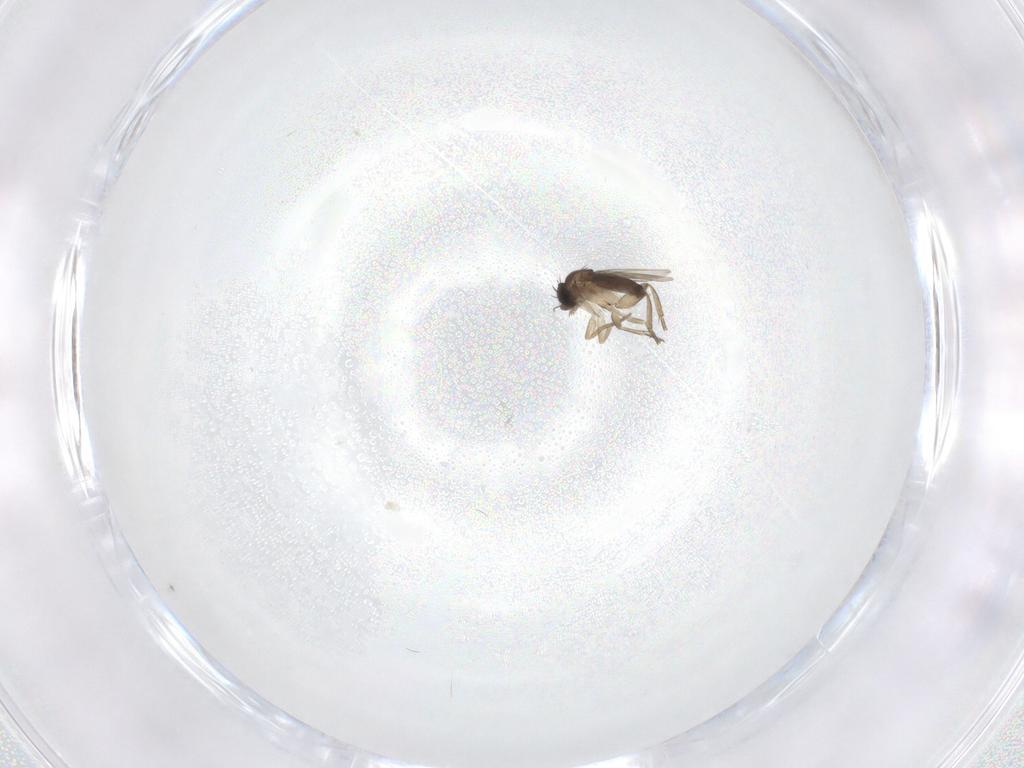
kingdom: Animalia
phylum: Arthropoda
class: Insecta
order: Diptera
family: Phoridae
